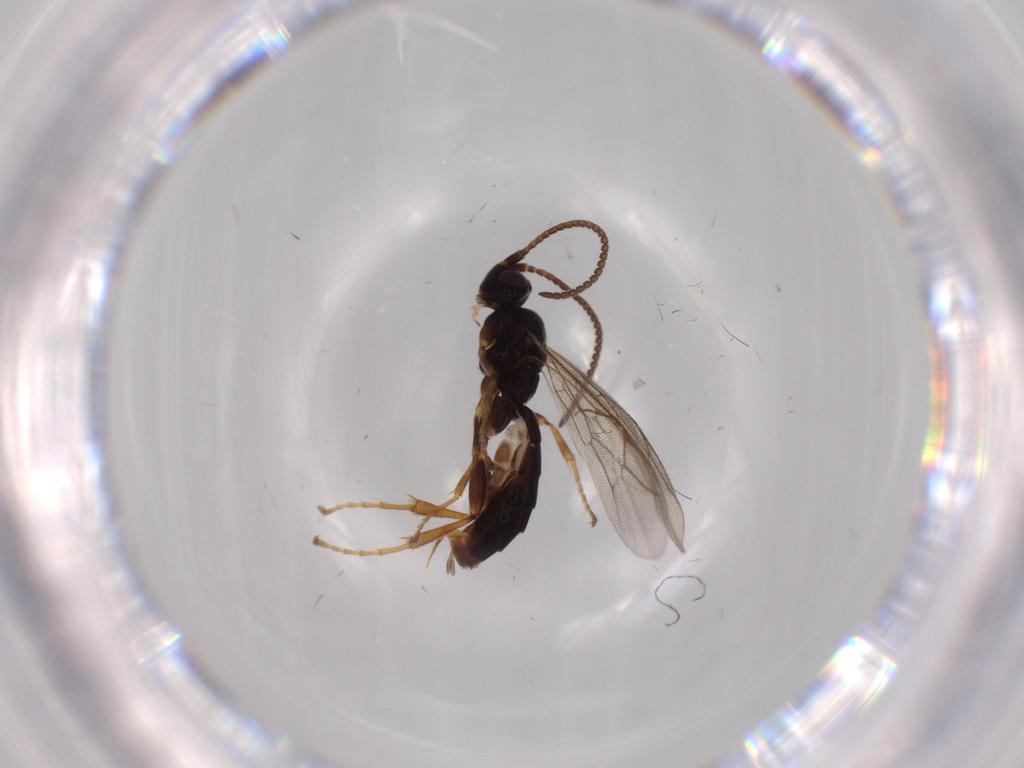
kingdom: Animalia
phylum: Arthropoda
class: Insecta
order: Hymenoptera
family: Ichneumonidae
